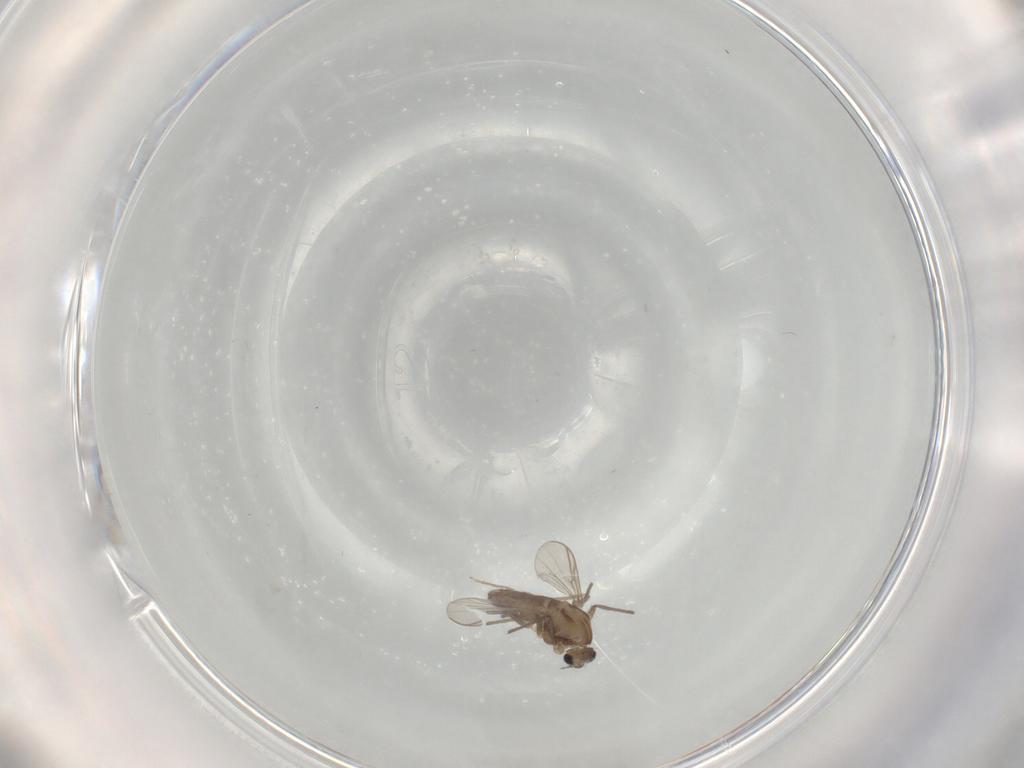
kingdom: Animalia
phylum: Arthropoda
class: Insecta
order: Diptera
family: Chironomidae
